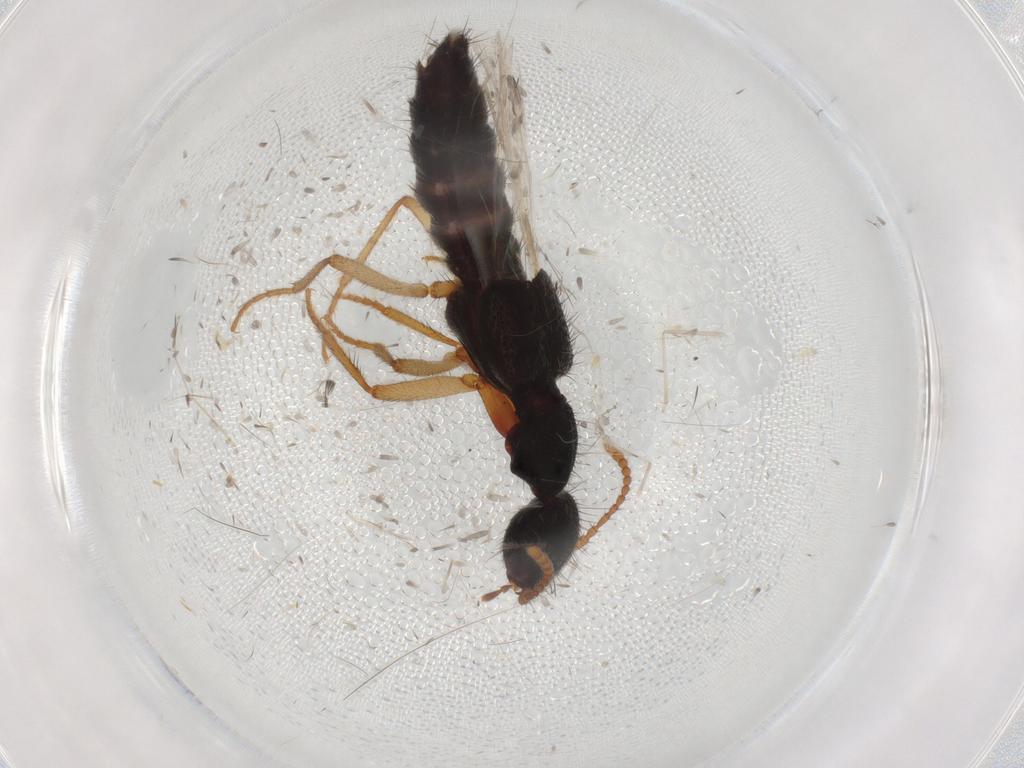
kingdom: Animalia
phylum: Arthropoda
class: Insecta
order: Coleoptera
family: Staphylinidae
